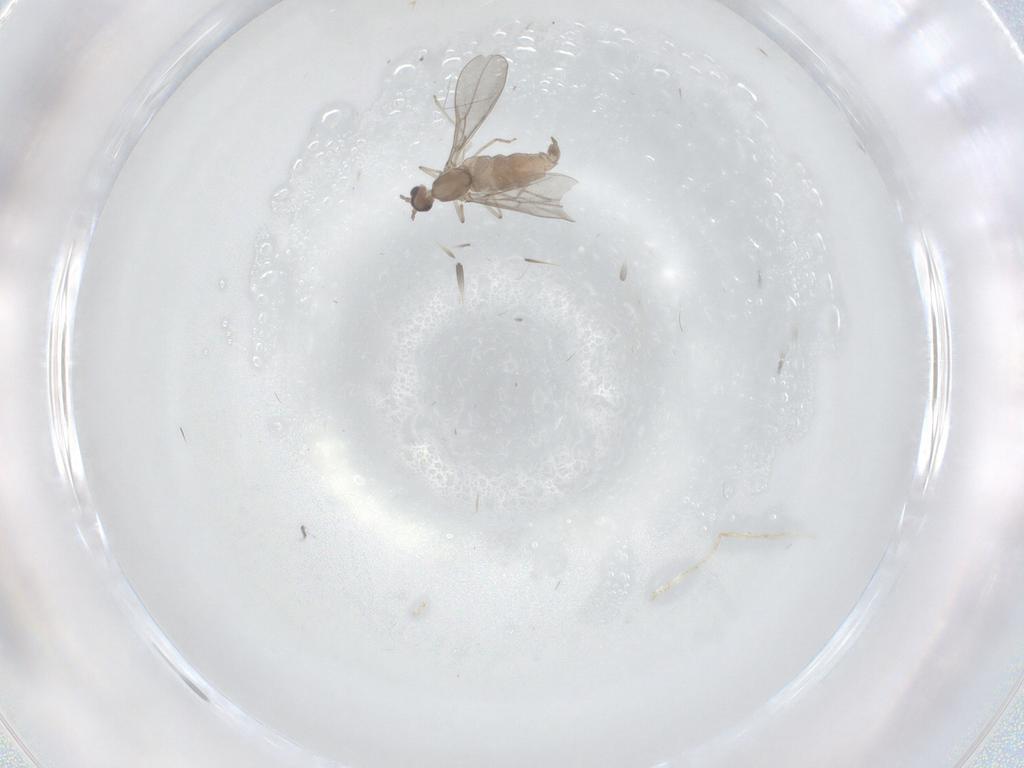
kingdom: Animalia
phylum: Arthropoda
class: Insecta
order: Diptera
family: Cecidomyiidae
